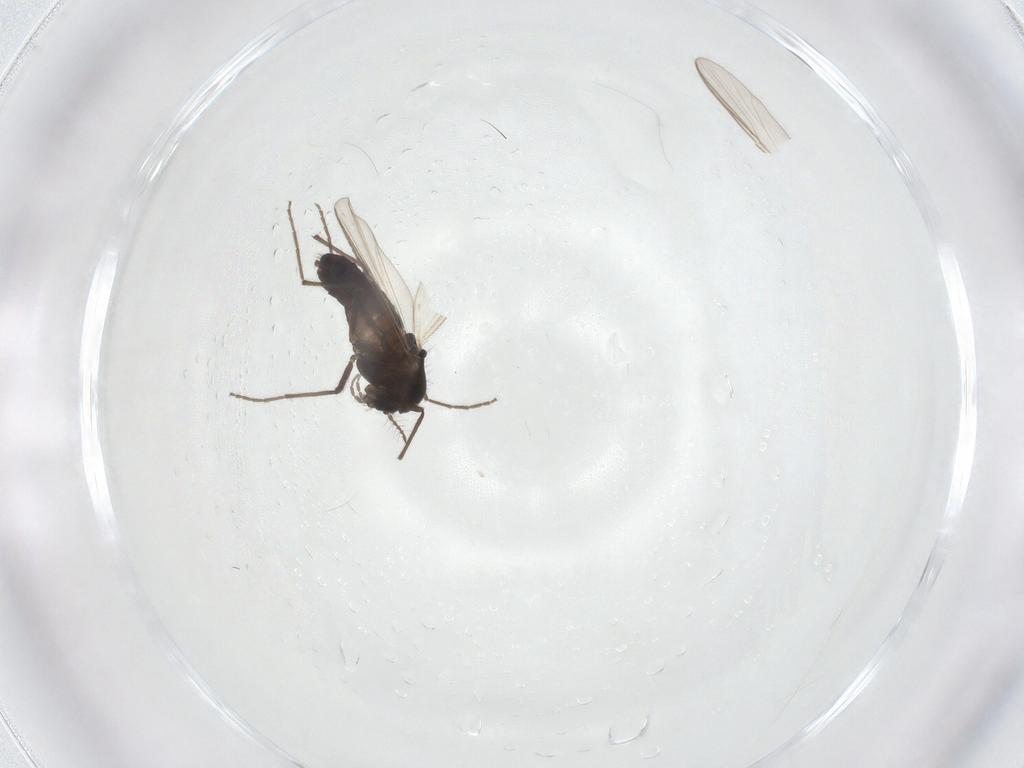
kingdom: Animalia
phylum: Arthropoda
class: Insecta
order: Diptera
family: Chironomidae
